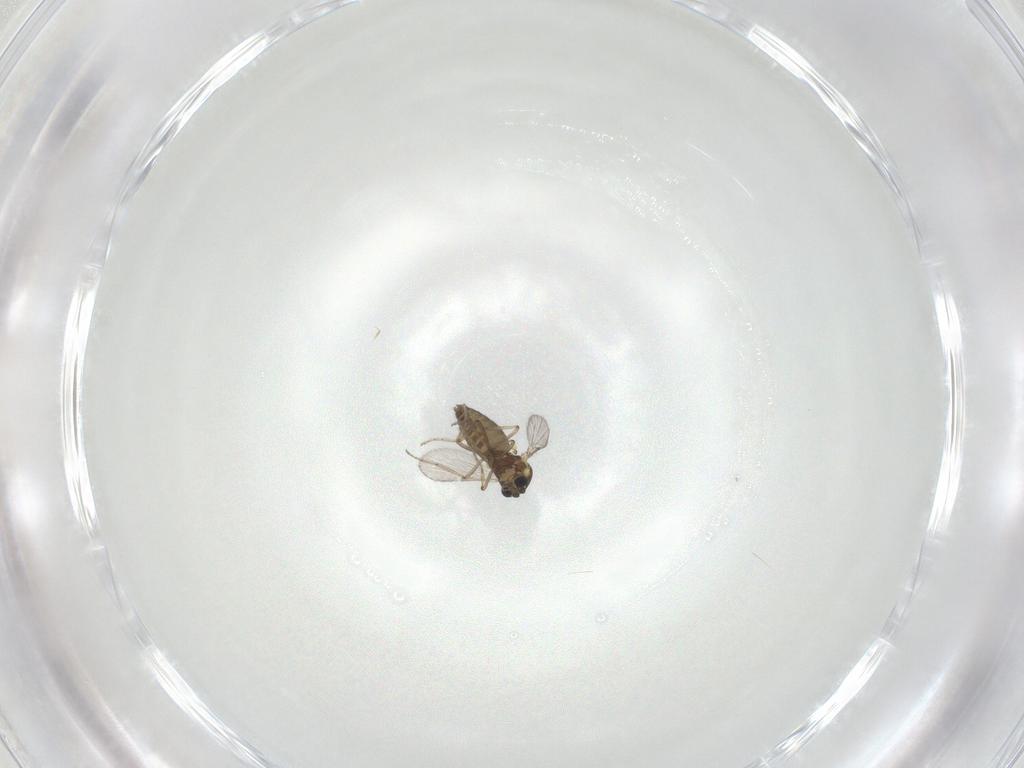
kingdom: Animalia
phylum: Arthropoda
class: Insecta
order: Diptera
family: Ceratopogonidae
